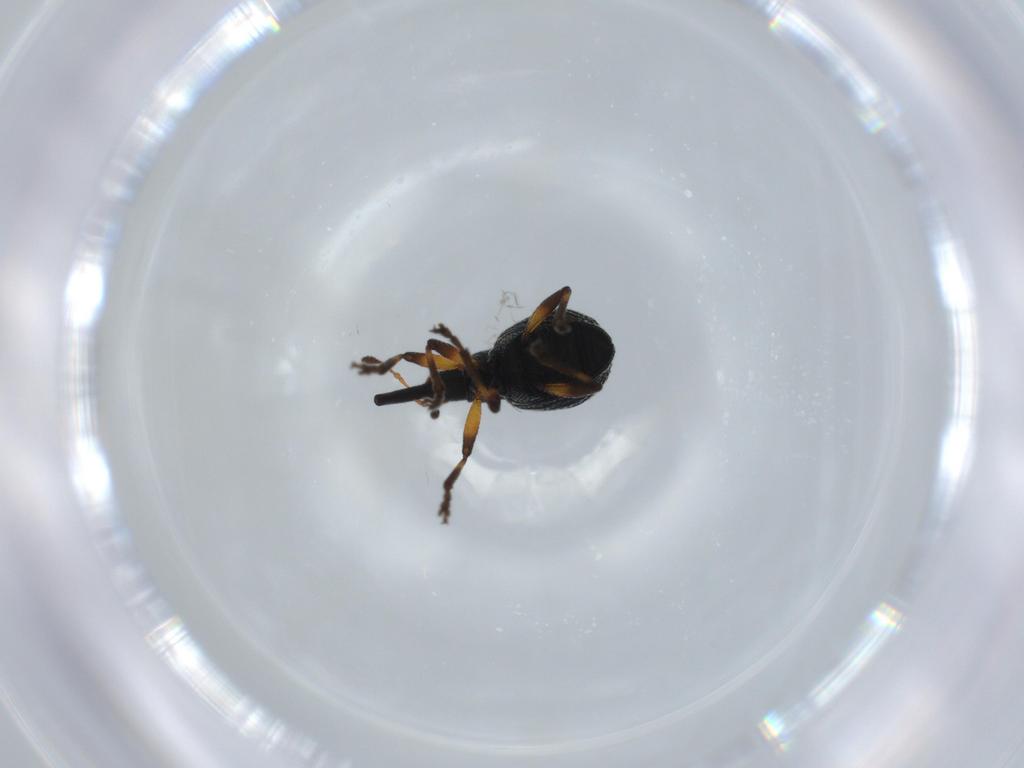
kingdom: Animalia
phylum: Arthropoda
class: Insecta
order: Coleoptera
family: Brentidae
